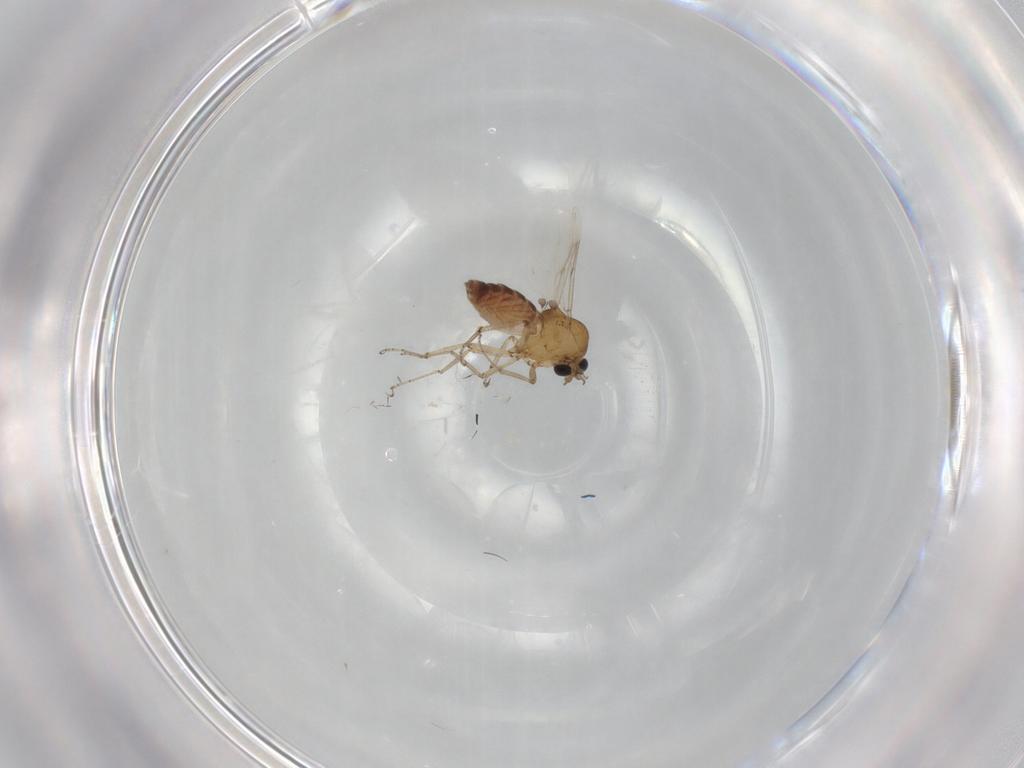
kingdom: Animalia
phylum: Arthropoda
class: Insecta
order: Diptera
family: Ceratopogonidae
